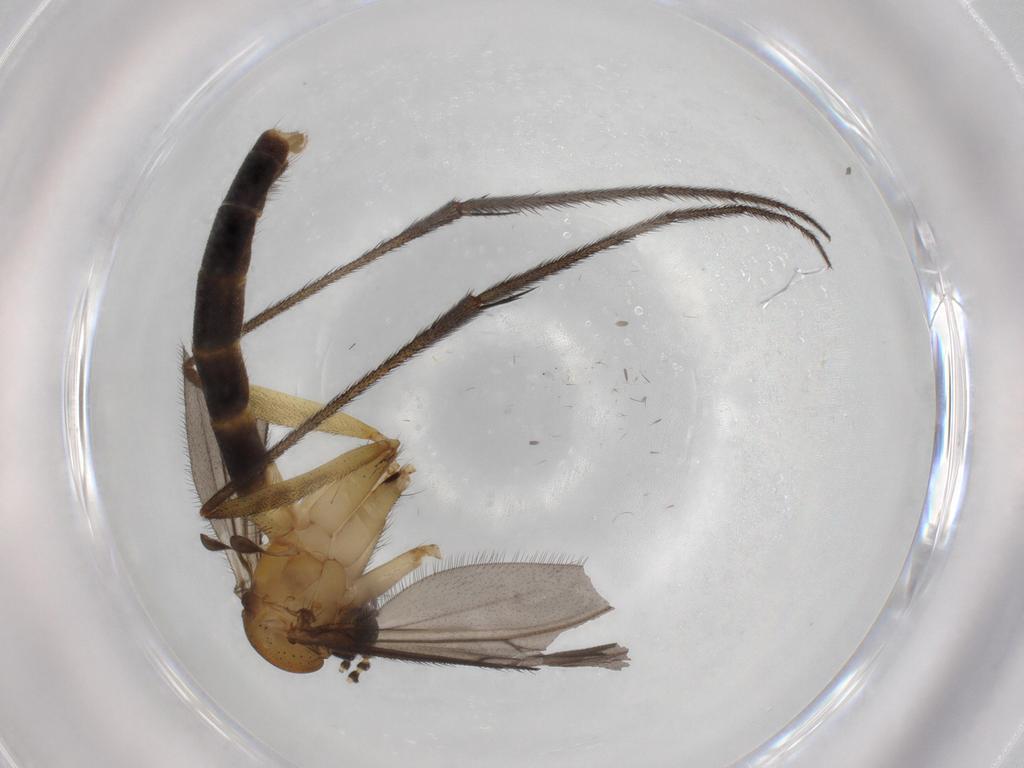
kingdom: Animalia
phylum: Arthropoda
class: Insecta
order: Diptera
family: Ditomyiidae
